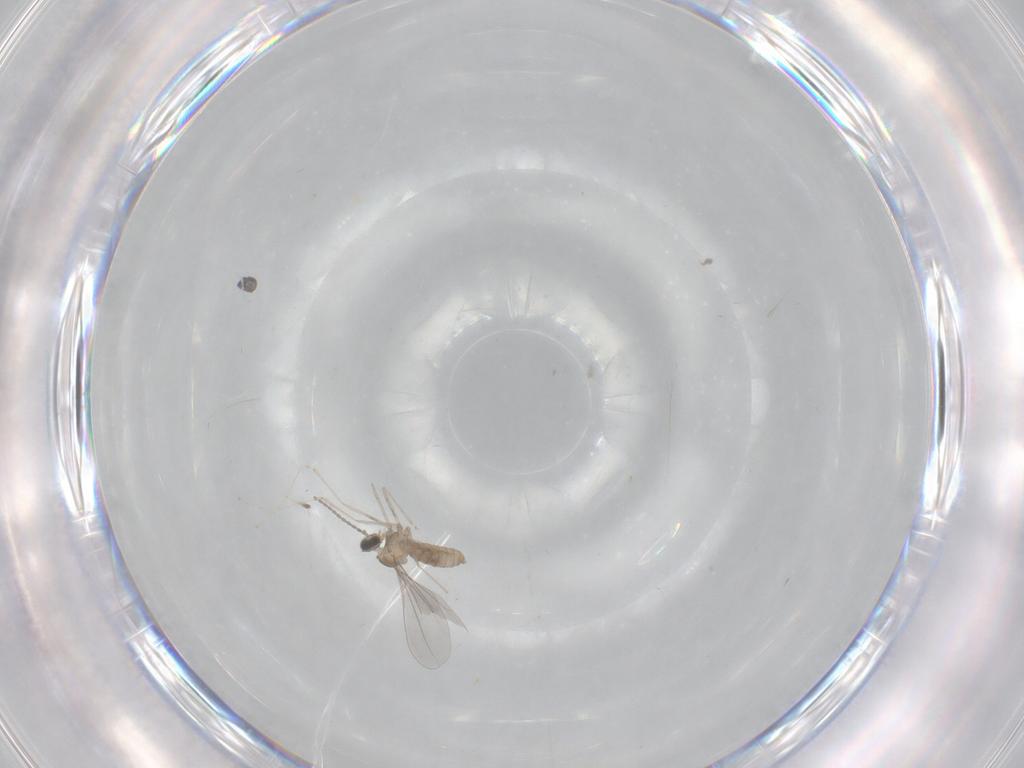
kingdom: Animalia
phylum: Arthropoda
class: Insecta
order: Diptera
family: Cecidomyiidae
